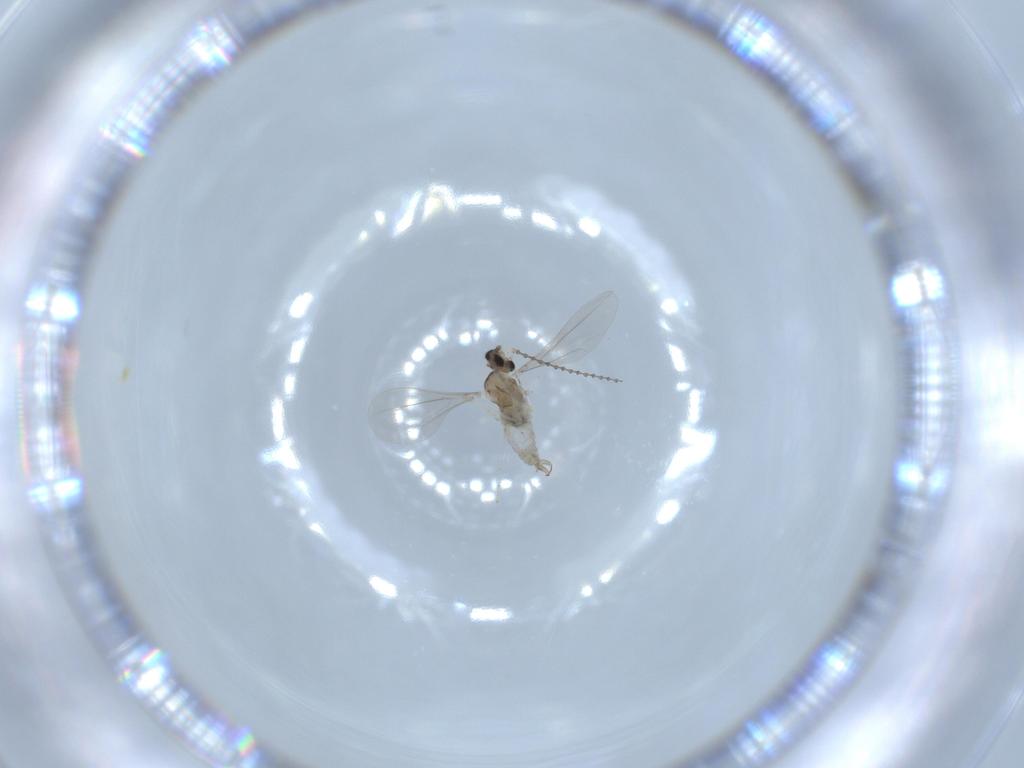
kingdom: Animalia
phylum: Arthropoda
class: Insecta
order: Diptera
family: Cecidomyiidae
